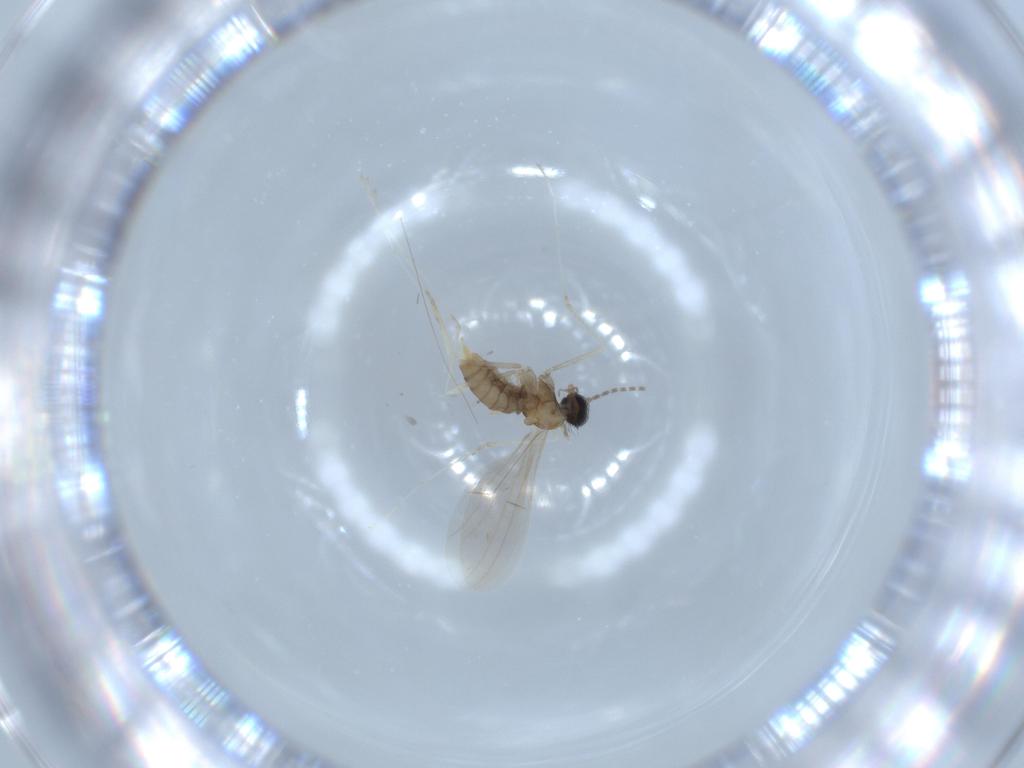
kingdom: Animalia
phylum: Arthropoda
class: Insecta
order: Diptera
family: Cecidomyiidae
